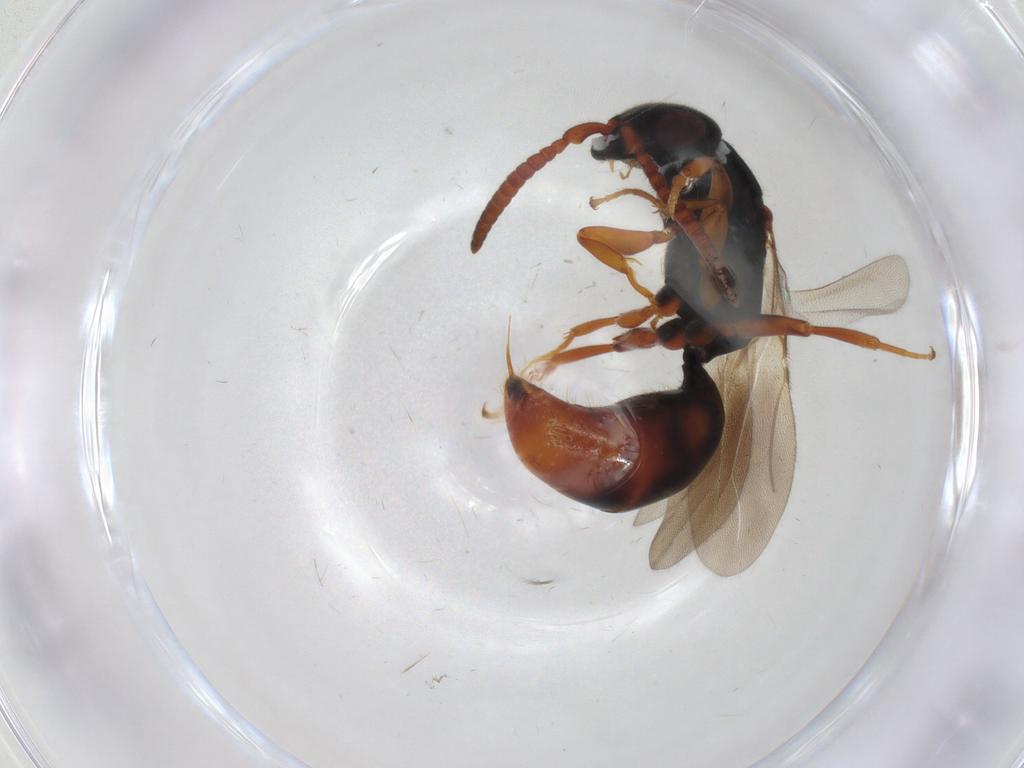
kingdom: Animalia
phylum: Arthropoda
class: Insecta
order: Hymenoptera
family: Bethylidae
